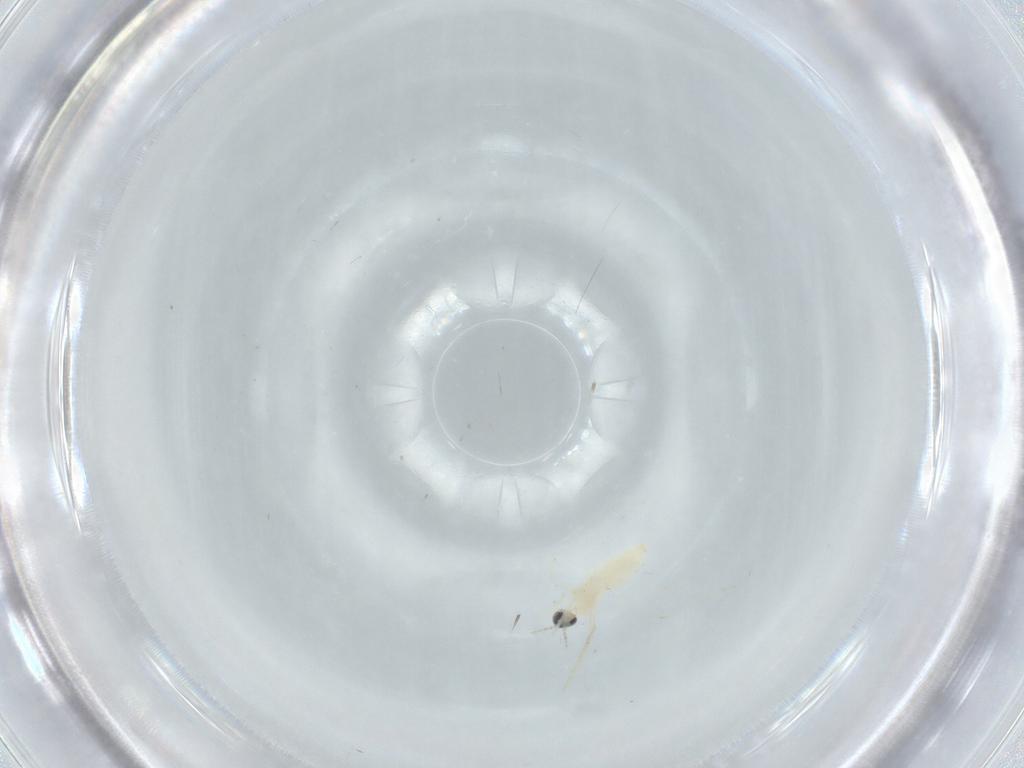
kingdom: Animalia
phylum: Arthropoda
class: Insecta
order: Diptera
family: Cecidomyiidae
